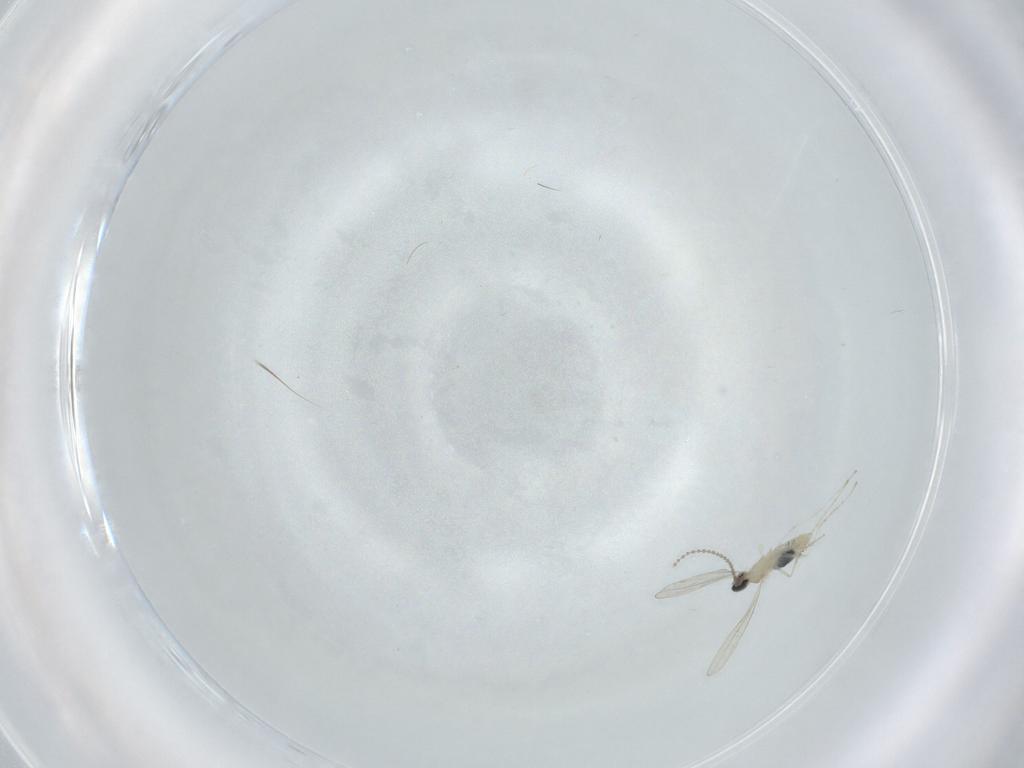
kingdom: Animalia
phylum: Arthropoda
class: Insecta
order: Diptera
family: Cecidomyiidae
